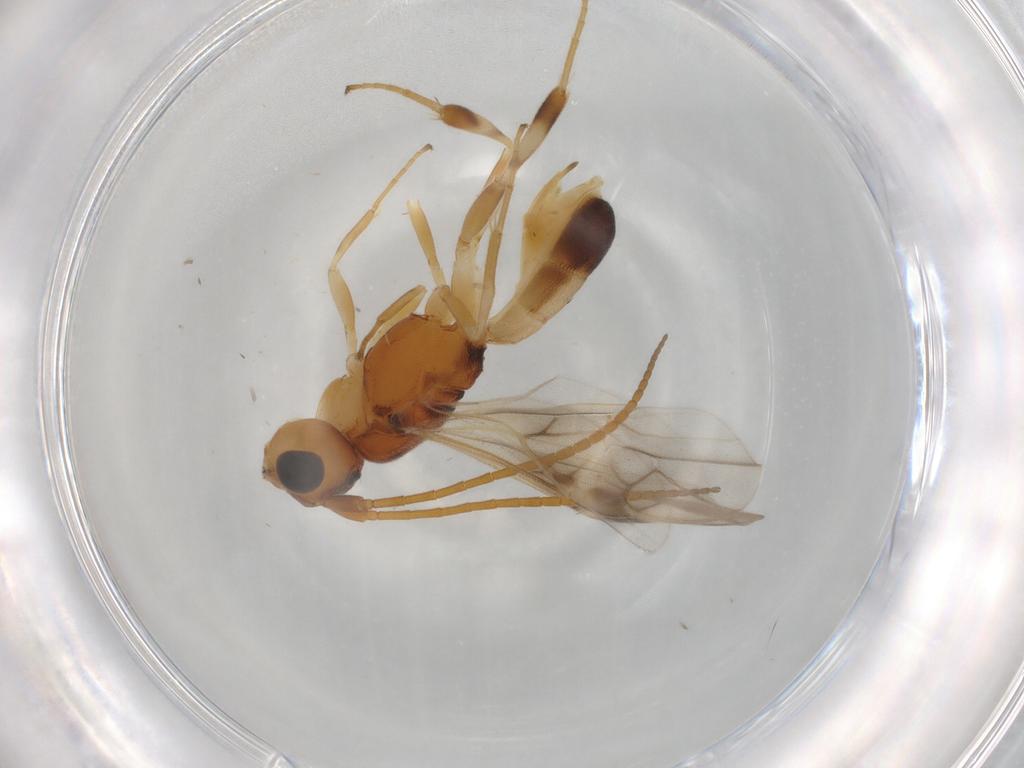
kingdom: Animalia
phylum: Arthropoda
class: Insecta
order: Hymenoptera
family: Braconidae
